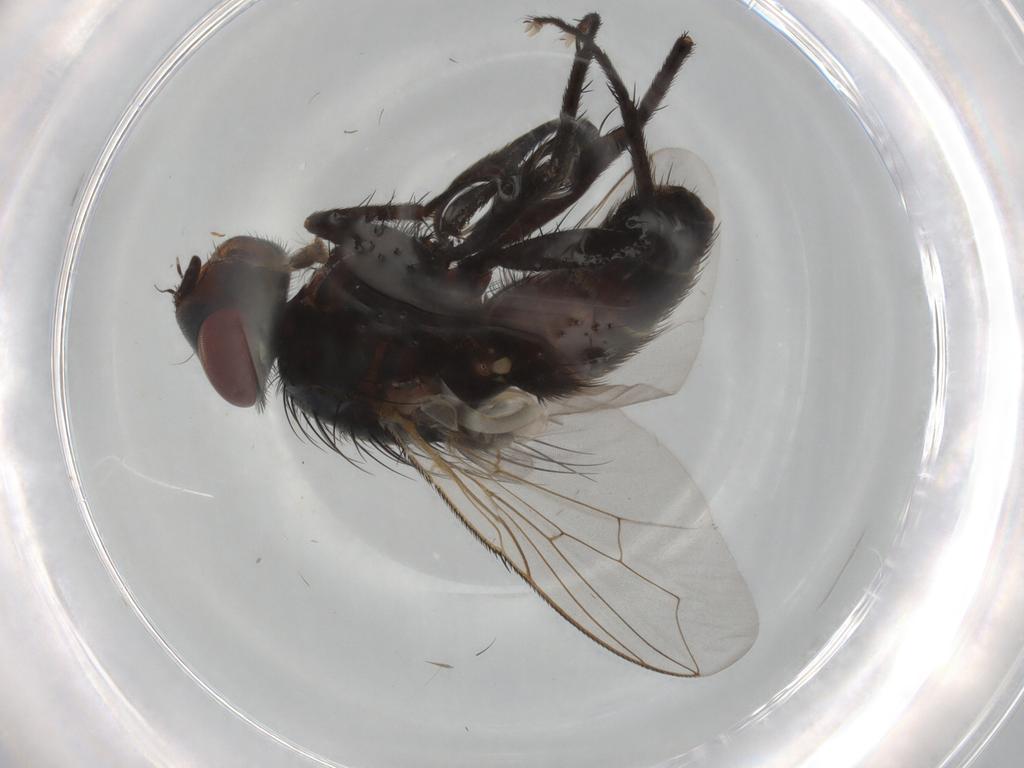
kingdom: Animalia
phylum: Arthropoda
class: Insecta
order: Diptera
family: Sarcophagidae
